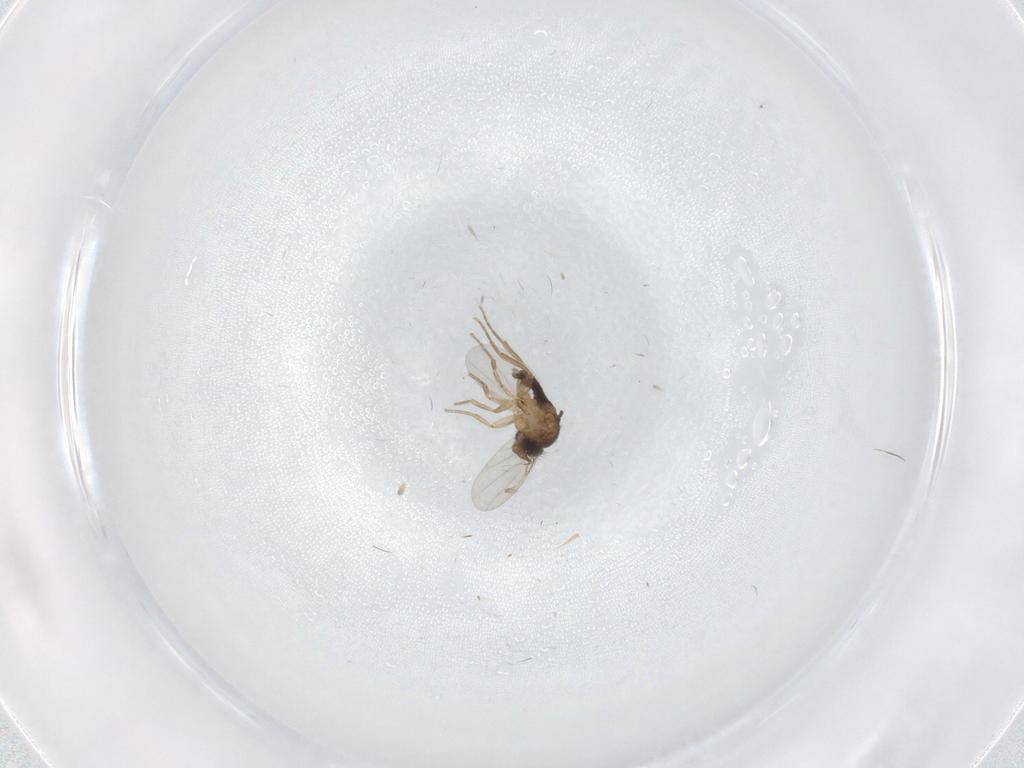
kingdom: Animalia
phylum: Arthropoda
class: Insecta
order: Diptera
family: Phoridae
